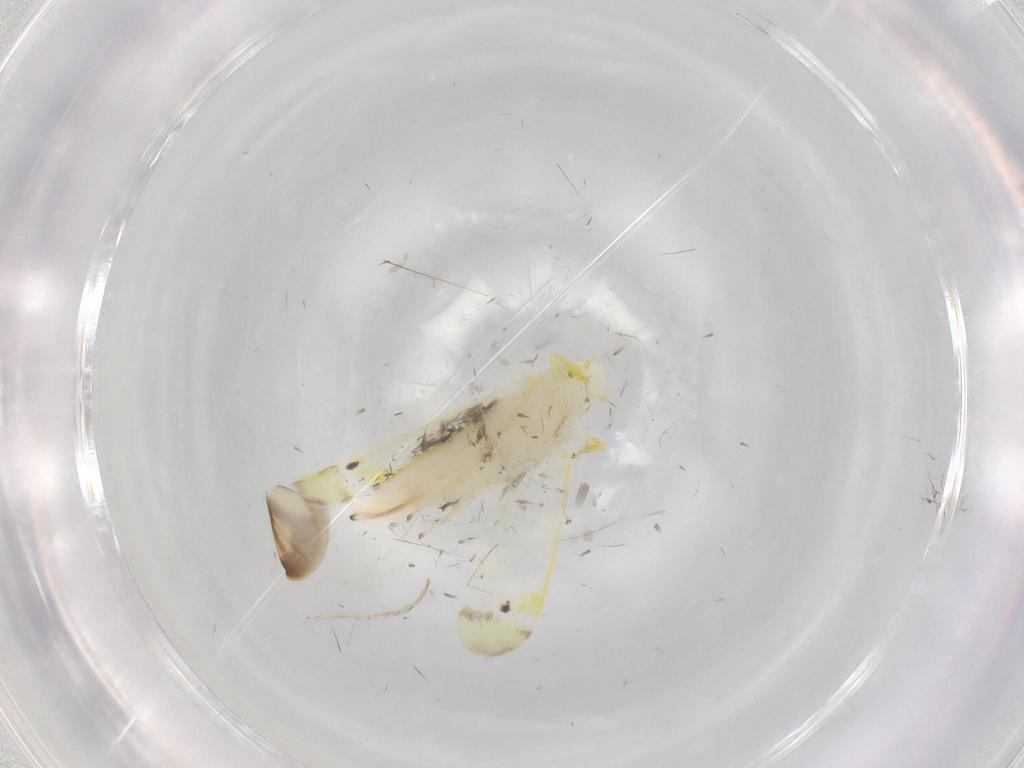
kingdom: Animalia
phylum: Arthropoda
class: Insecta
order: Hemiptera
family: Cicadellidae
